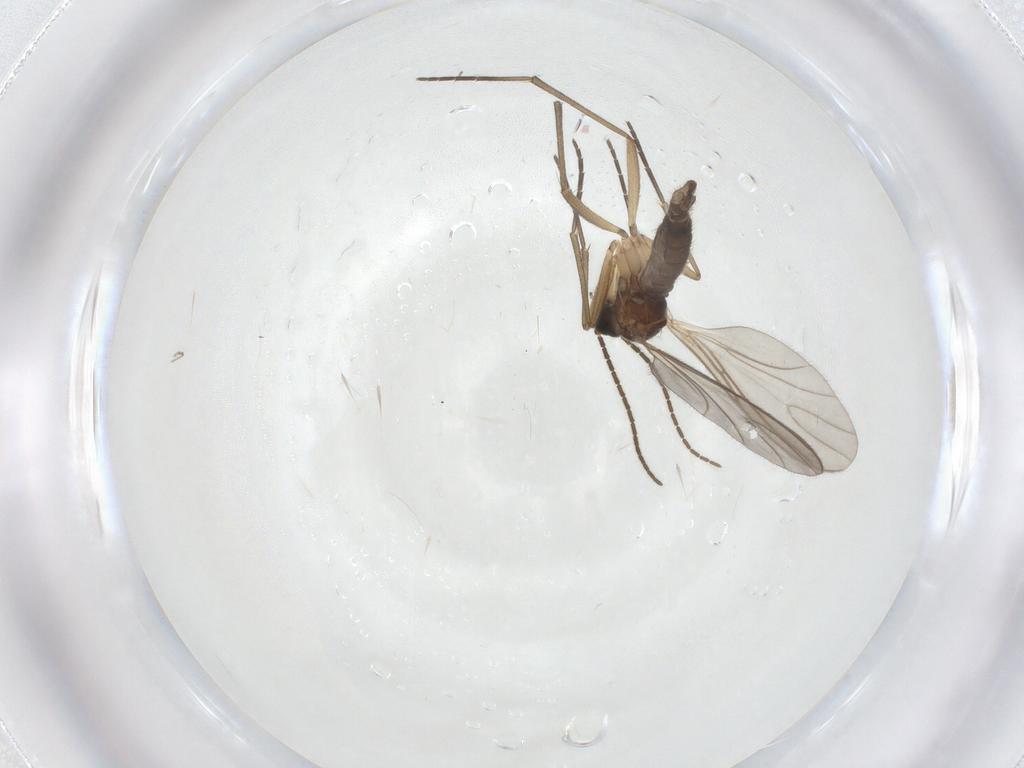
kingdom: Animalia
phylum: Arthropoda
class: Insecta
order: Diptera
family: Sciaridae
